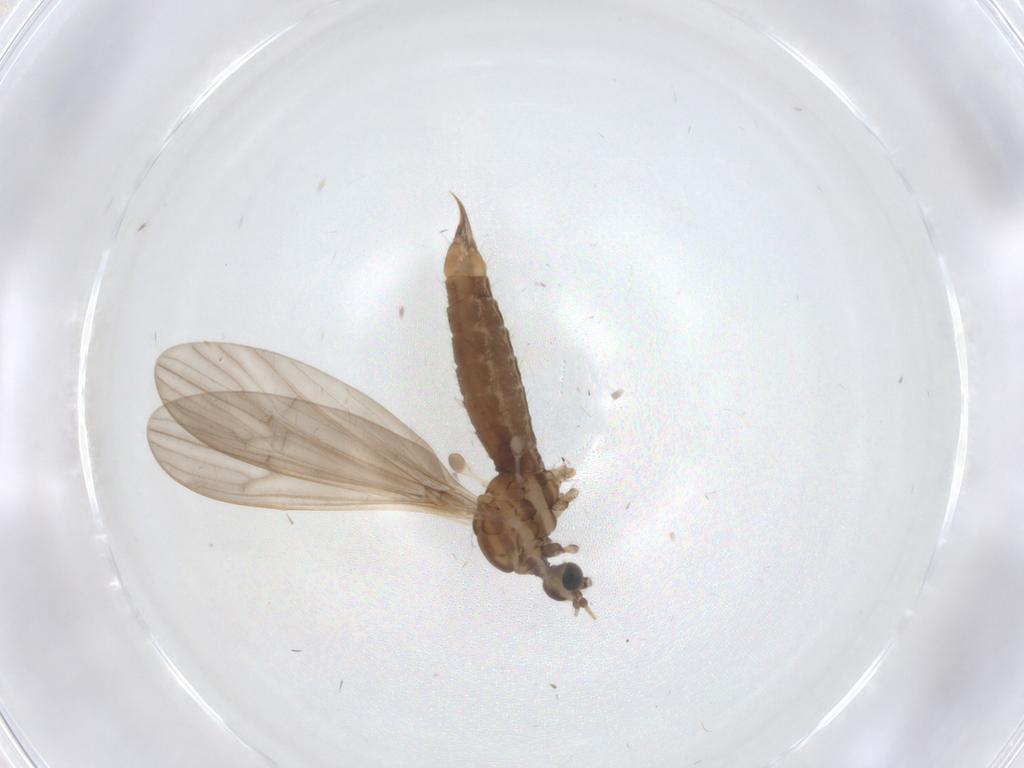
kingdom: Animalia
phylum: Arthropoda
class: Insecta
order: Diptera
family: Limoniidae
